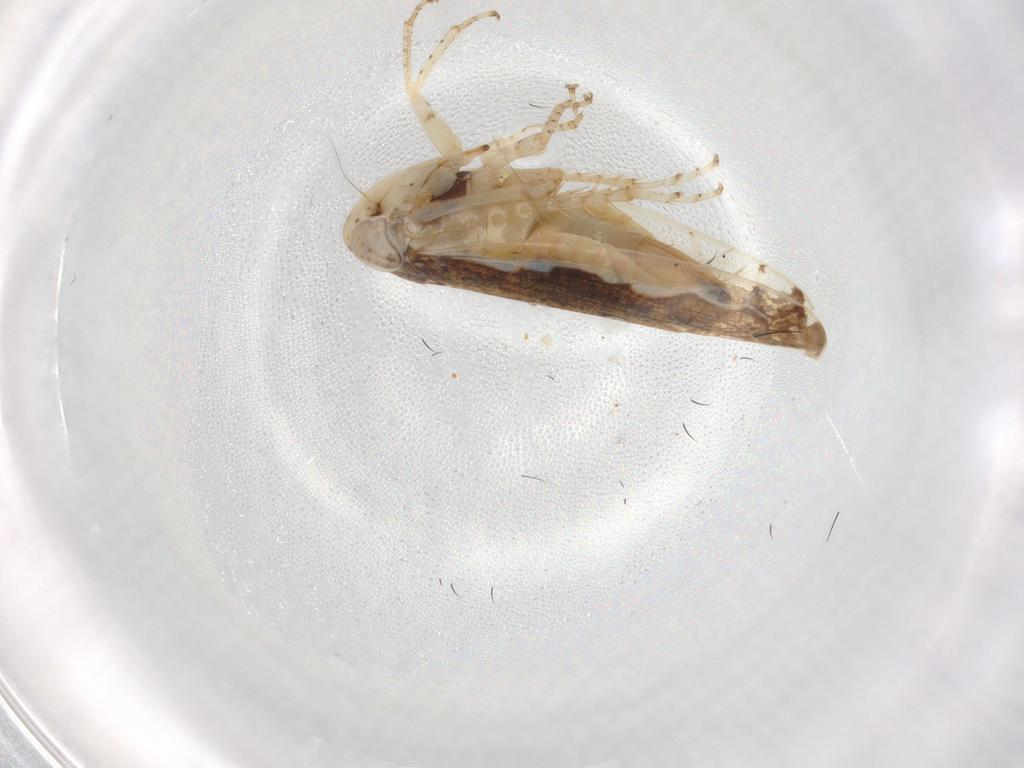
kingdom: Animalia
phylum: Arthropoda
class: Insecta
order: Hemiptera
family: Cicadellidae
